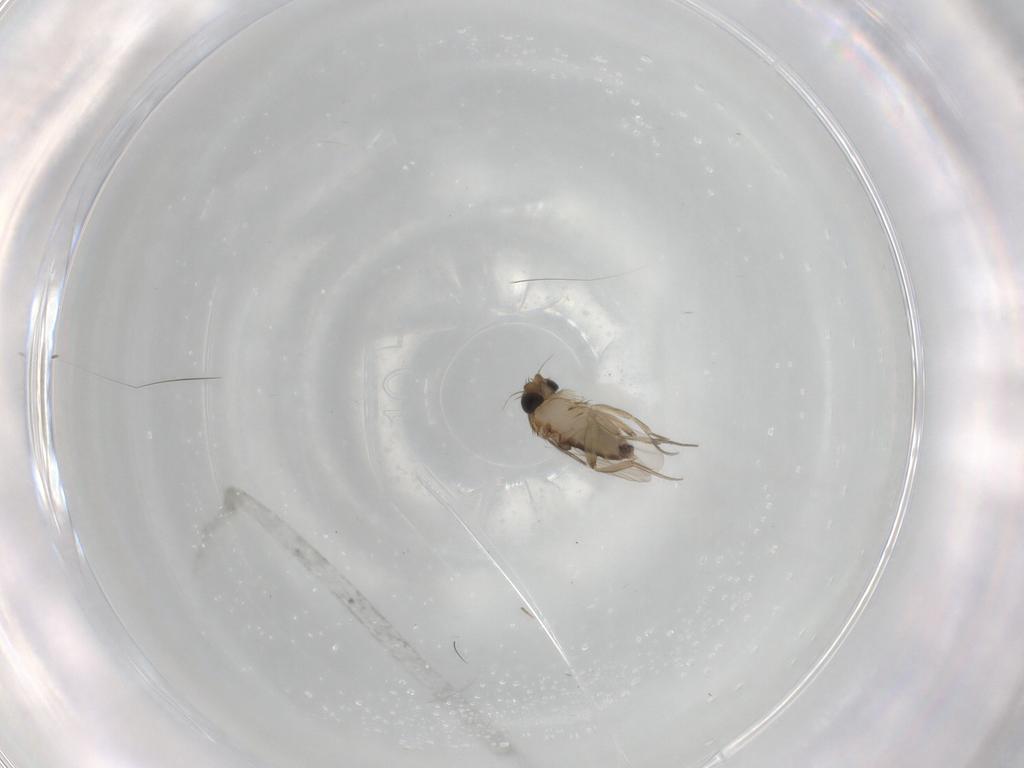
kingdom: Animalia
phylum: Arthropoda
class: Insecta
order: Diptera
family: Phoridae
